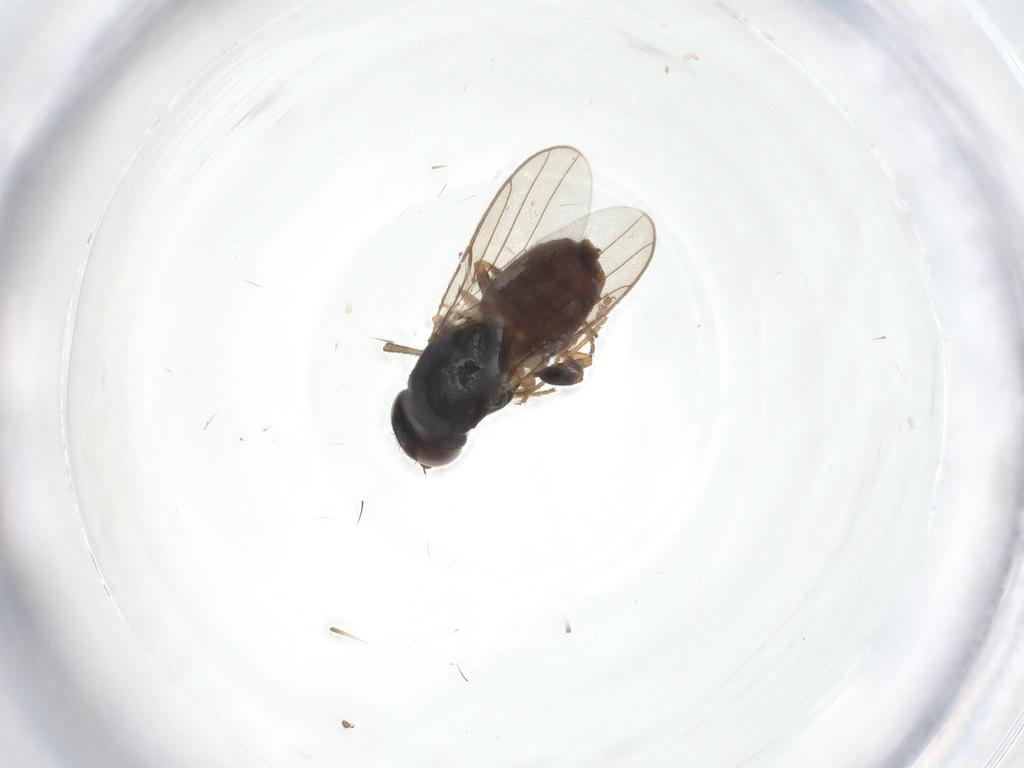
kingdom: Animalia
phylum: Arthropoda
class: Insecta
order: Diptera
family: Chloropidae
